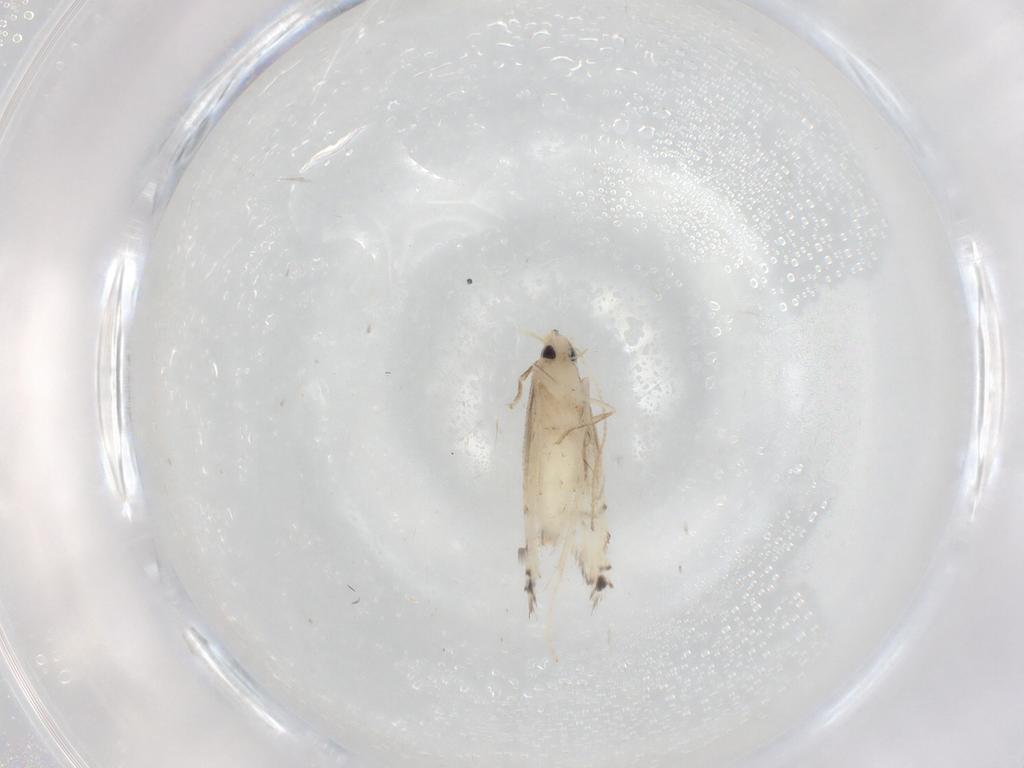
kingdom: Animalia
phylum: Arthropoda
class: Insecta
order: Lepidoptera
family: Gracillariidae
